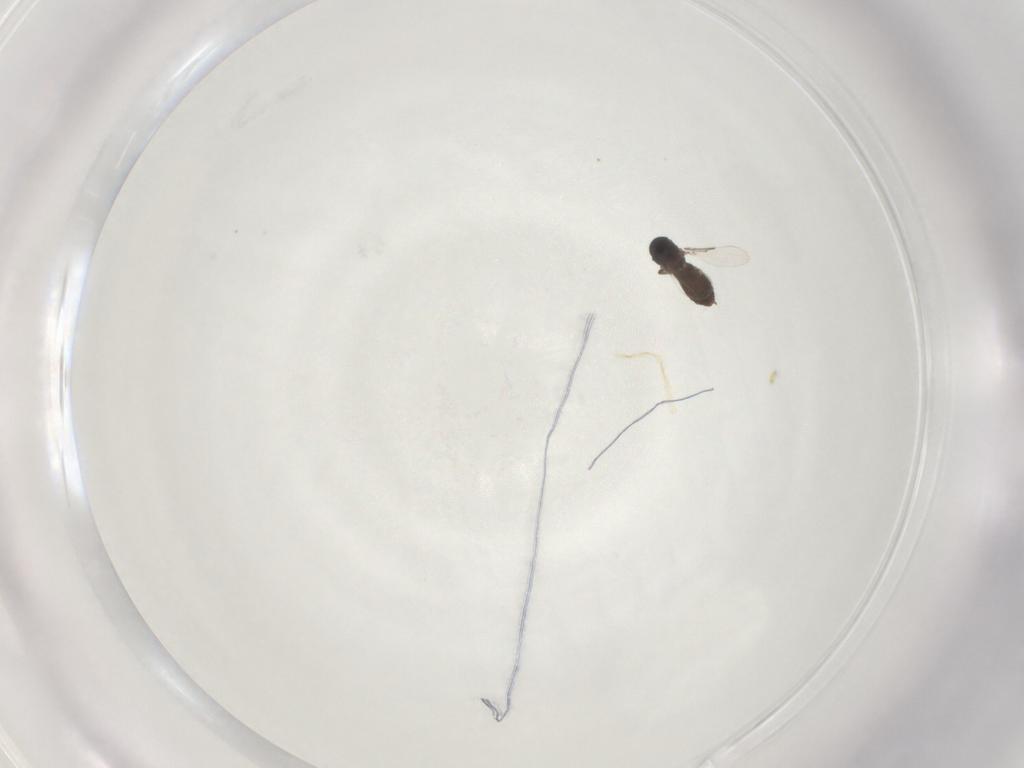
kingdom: Animalia
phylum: Arthropoda
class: Insecta
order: Diptera
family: Ceratopogonidae
